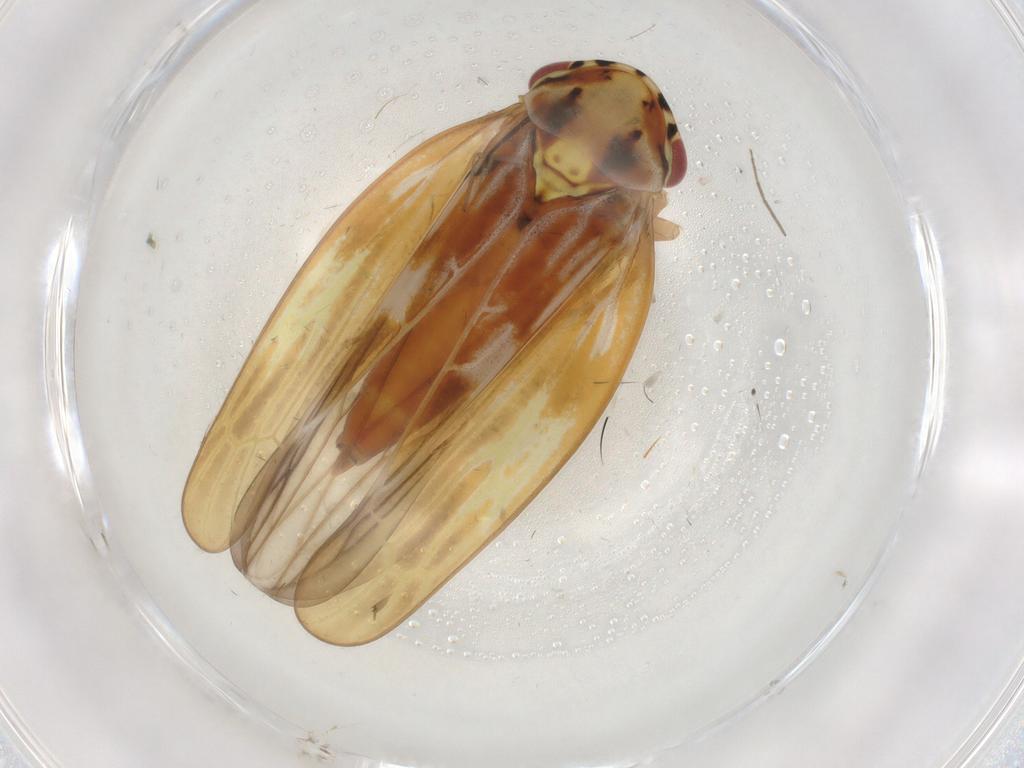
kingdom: Animalia
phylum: Arthropoda
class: Insecta
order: Hemiptera
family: Cicadellidae
